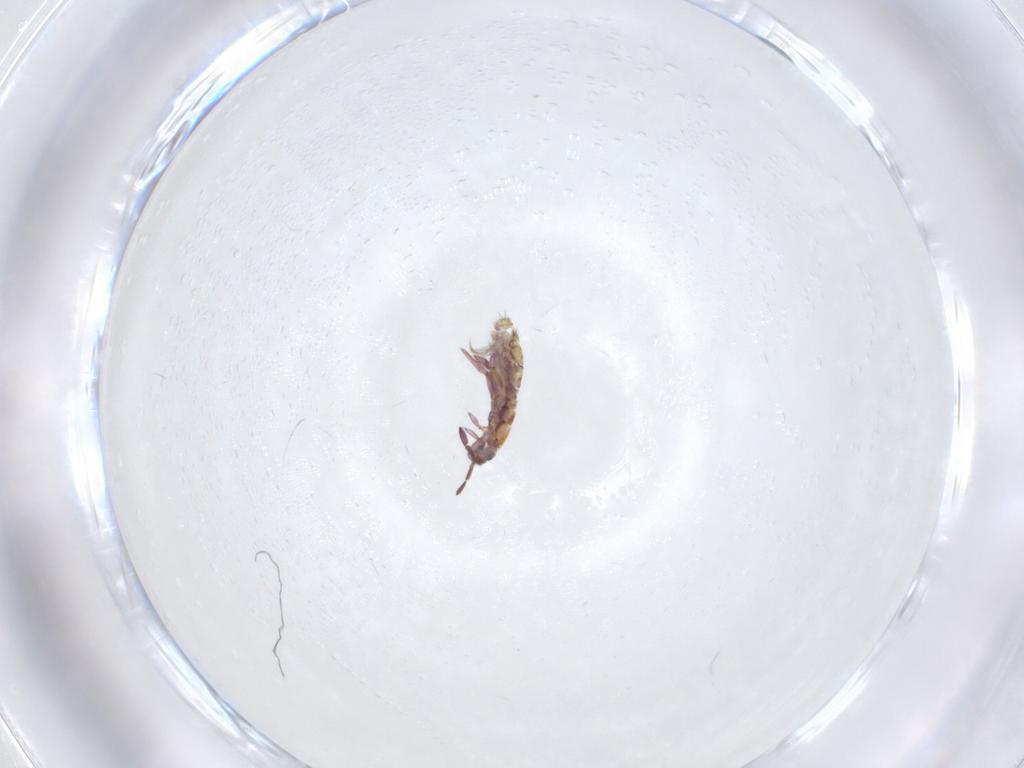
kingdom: Animalia
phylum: Arthropoda
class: Collembola
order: Entomobryomorpha
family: Isotomidae
